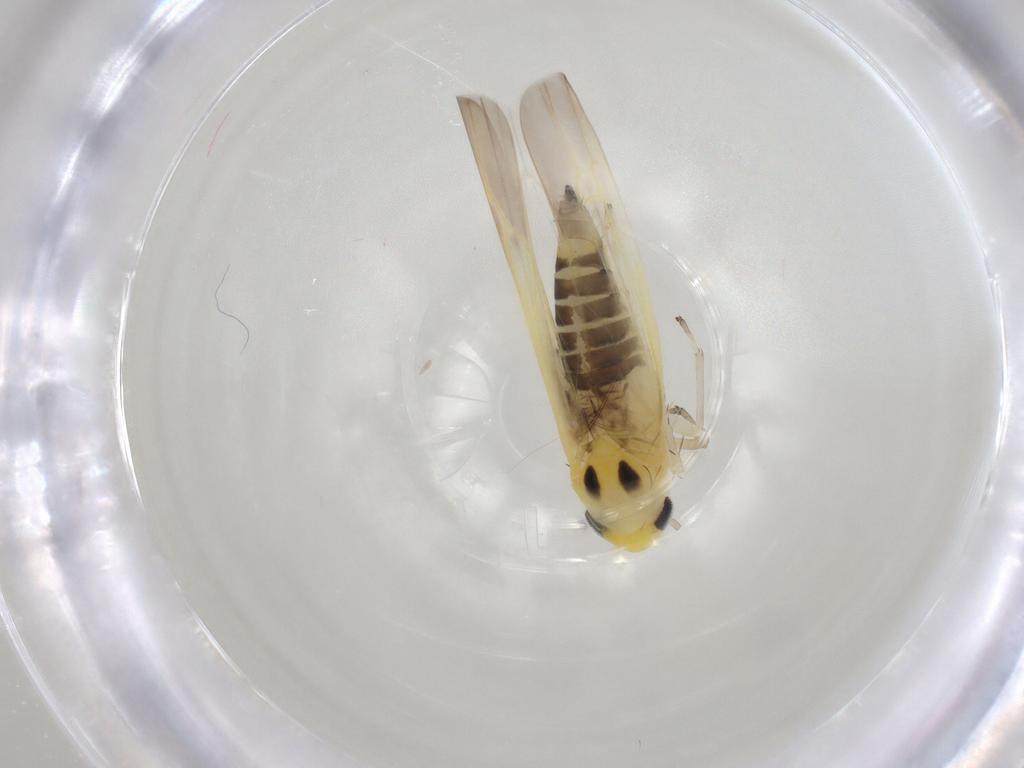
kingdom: Animalia
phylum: Arthropoda
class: Insecta
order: Hemiptera
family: Cicadellidae
